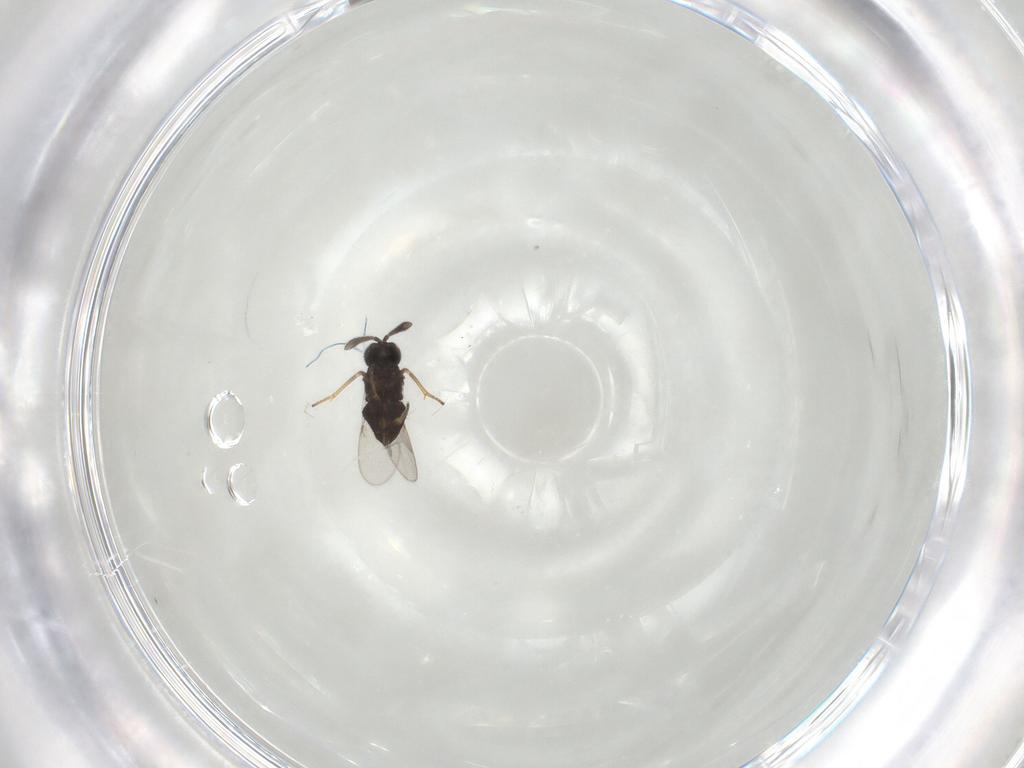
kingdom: Animalia
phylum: Arthropoda
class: Insecta
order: Hymenoptera
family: Encyrtidae
